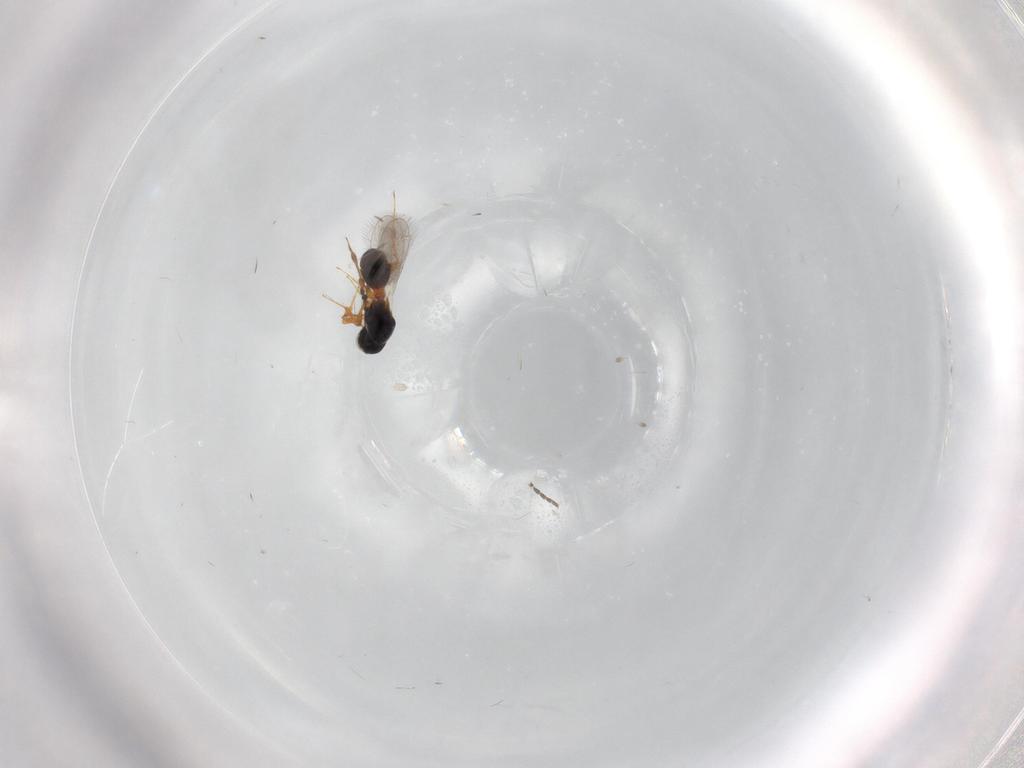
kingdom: Animalia
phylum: Arthropoda
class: Insecta
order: Hymenoptera
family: Platygastridae
